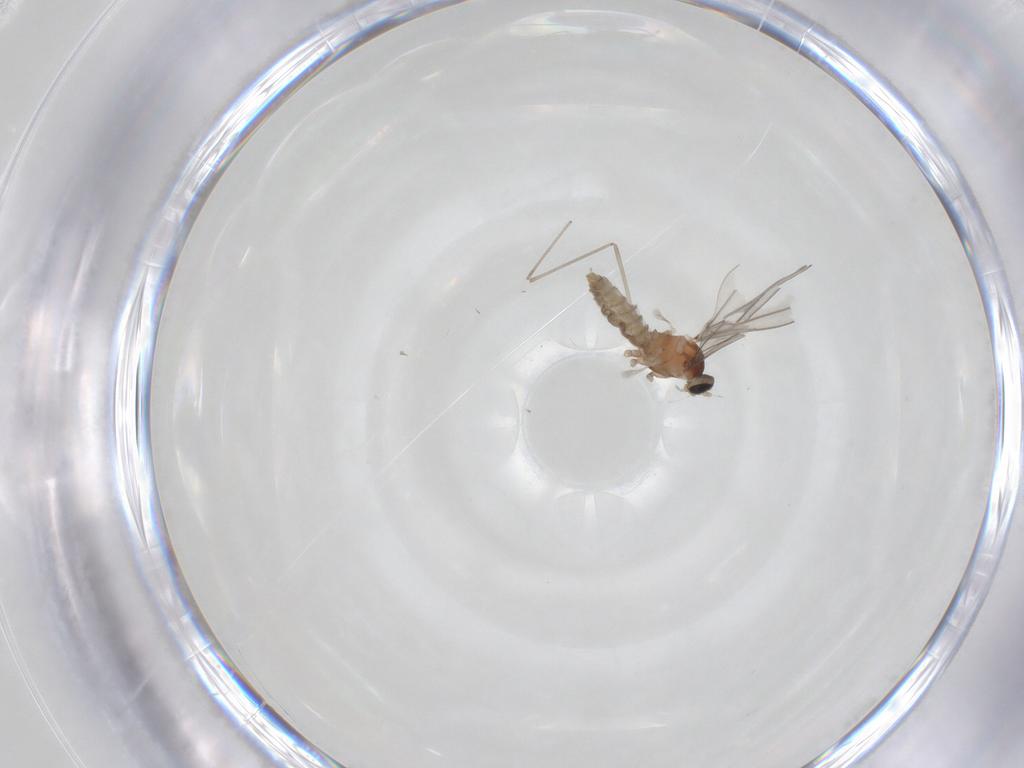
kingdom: Animalia
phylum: Arthropoda
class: Insecta
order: Diptera
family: Cecidomyiidae
